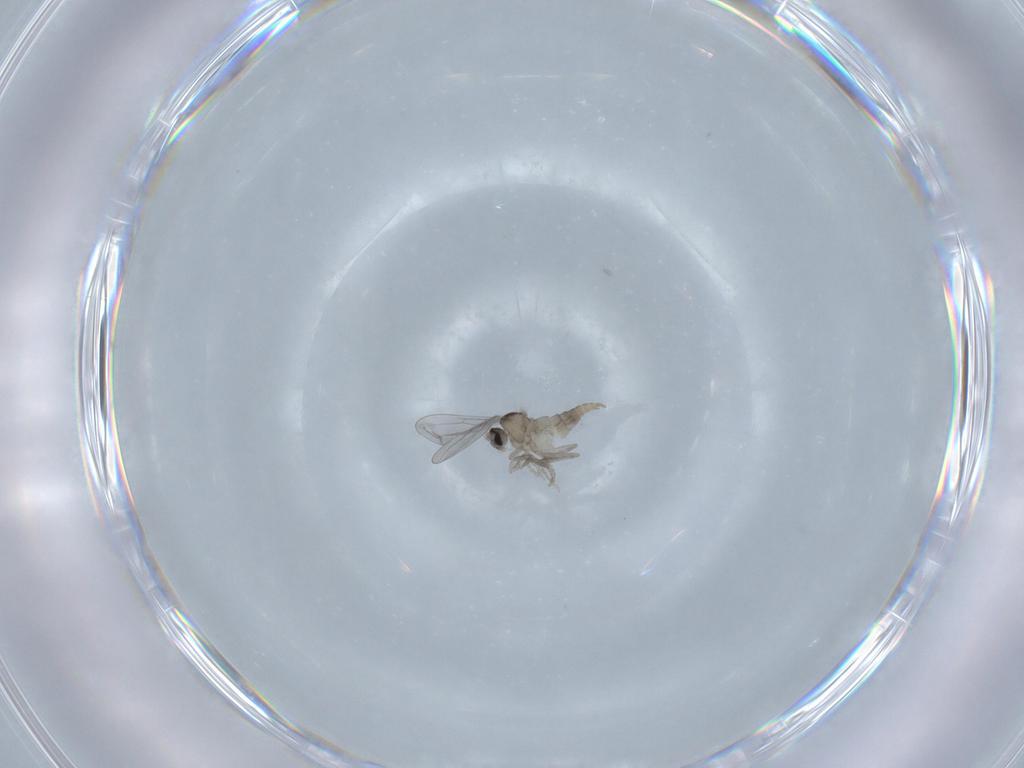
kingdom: Animalia
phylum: Arthropoda
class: Insecta
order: Diptera
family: Cecidomyiidae
